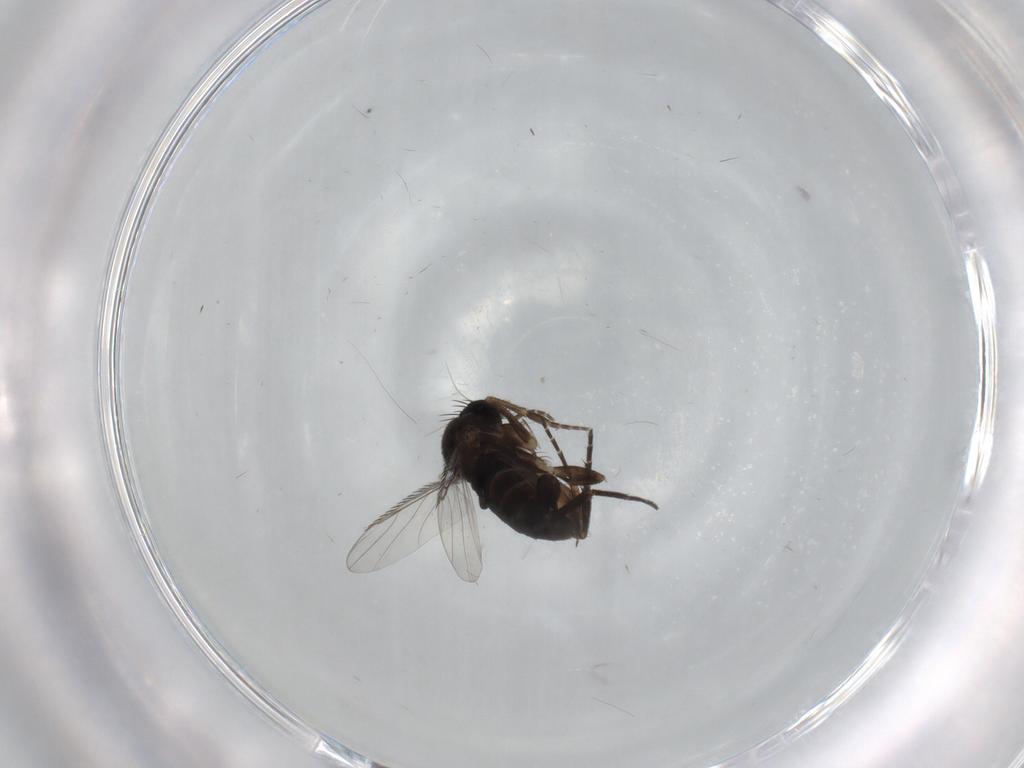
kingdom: Animalia
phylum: Arthropoda
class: Insecta
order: Diptera
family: Phoridae
